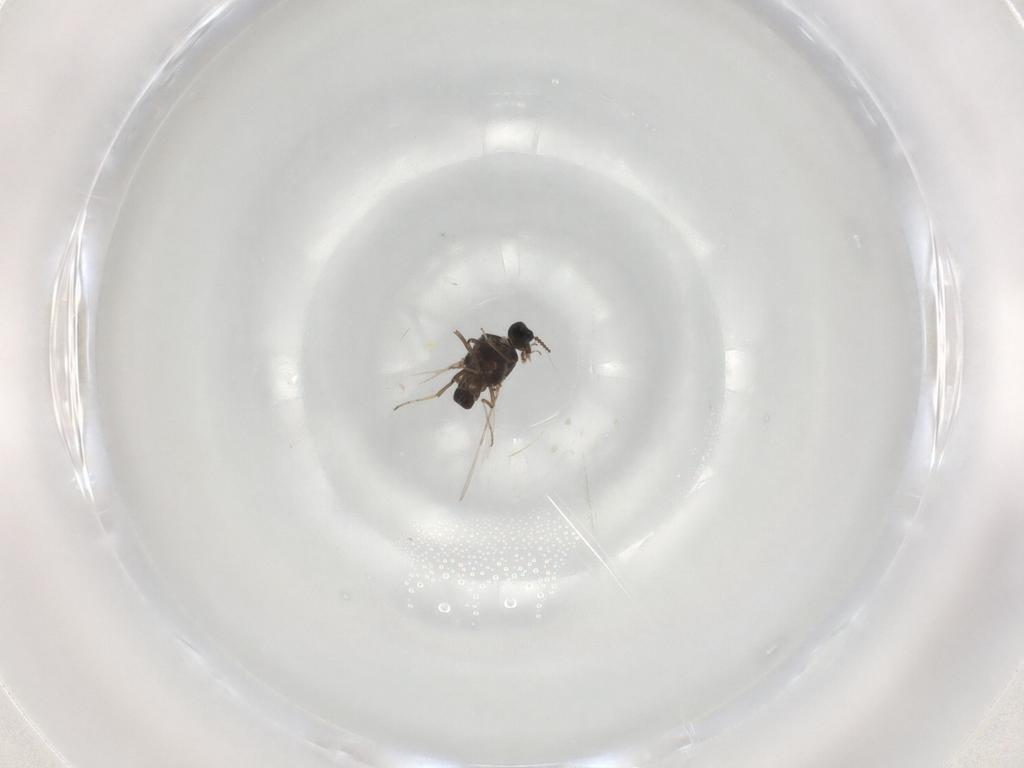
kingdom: Animalia
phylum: Arthropoda
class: Insecta
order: Diptera
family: Ceratopogonidae
